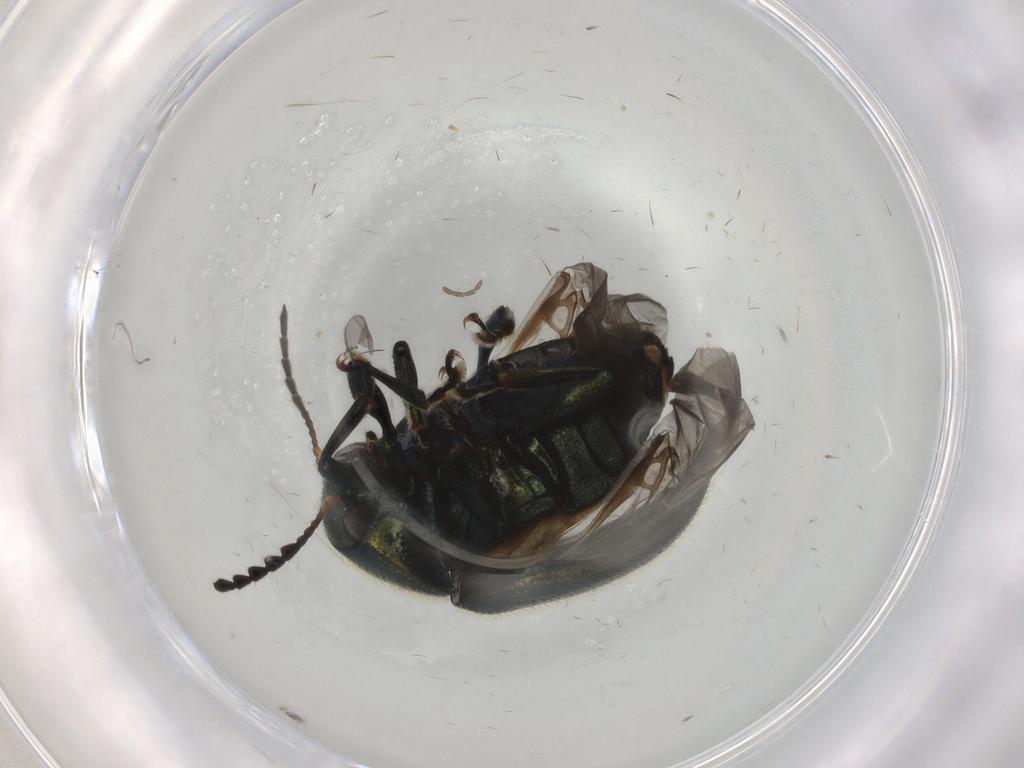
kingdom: Animalia
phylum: Arthropoda
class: Insecta
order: Coleoptera
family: Chrysomelidae
